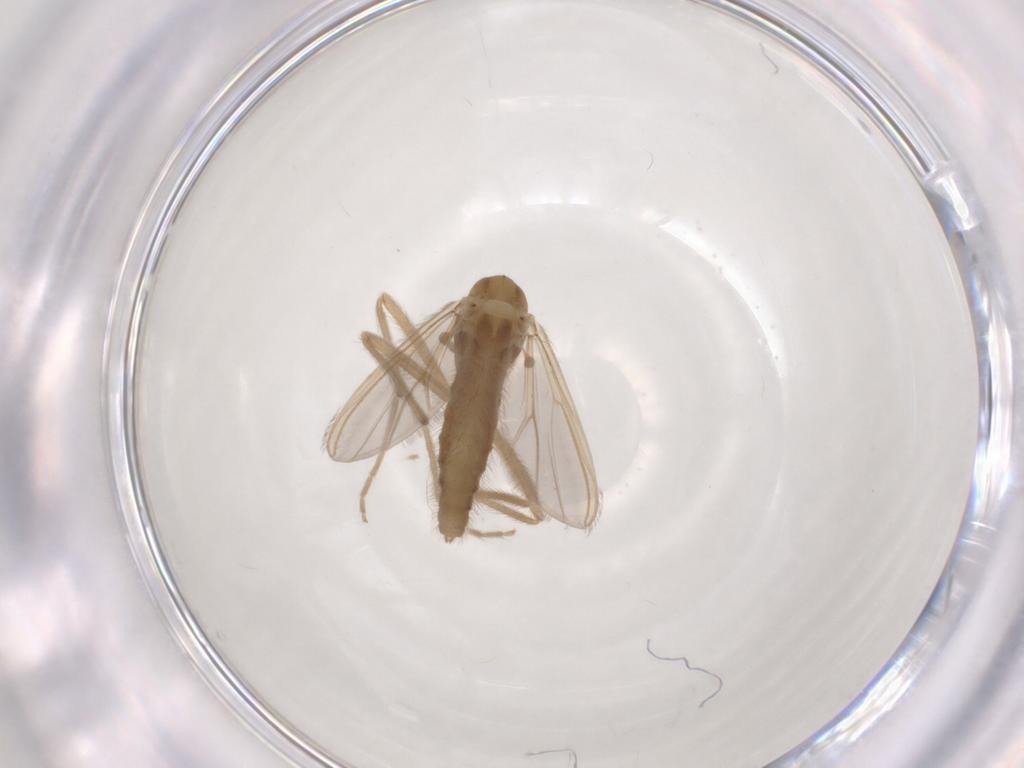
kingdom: Animalia
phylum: Arthropoda
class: Insecta
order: Diptera
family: Chironomidae
